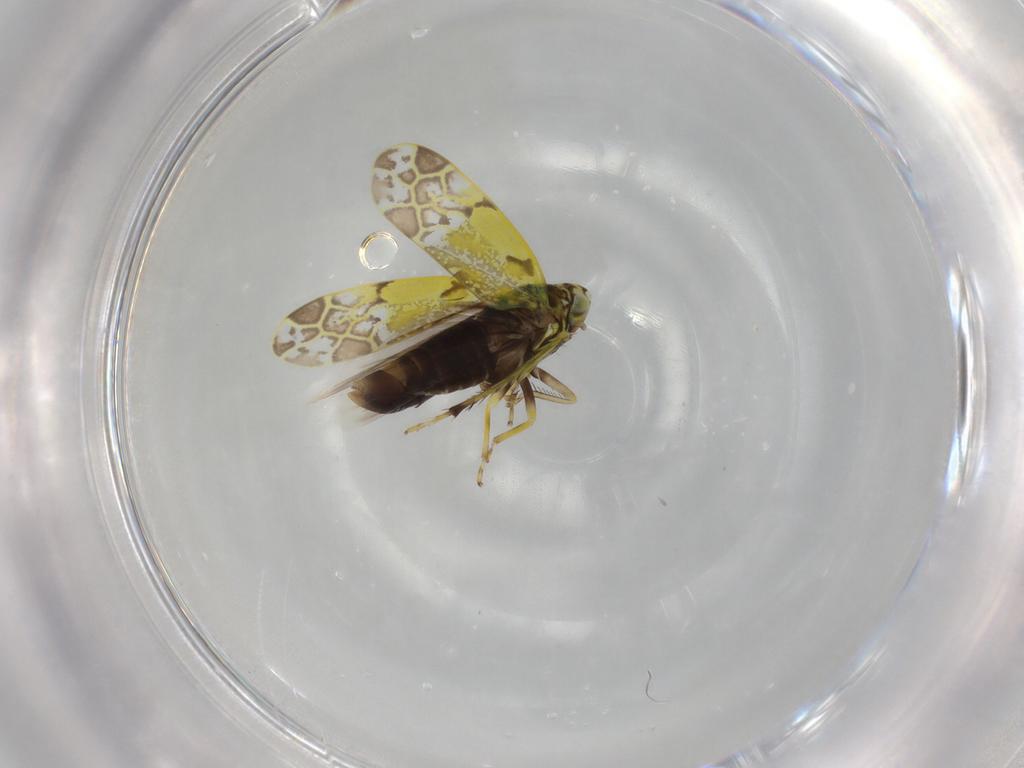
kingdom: Animalia
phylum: Arthropoda
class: Insecta
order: Hemiptera
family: Cicadellidae
